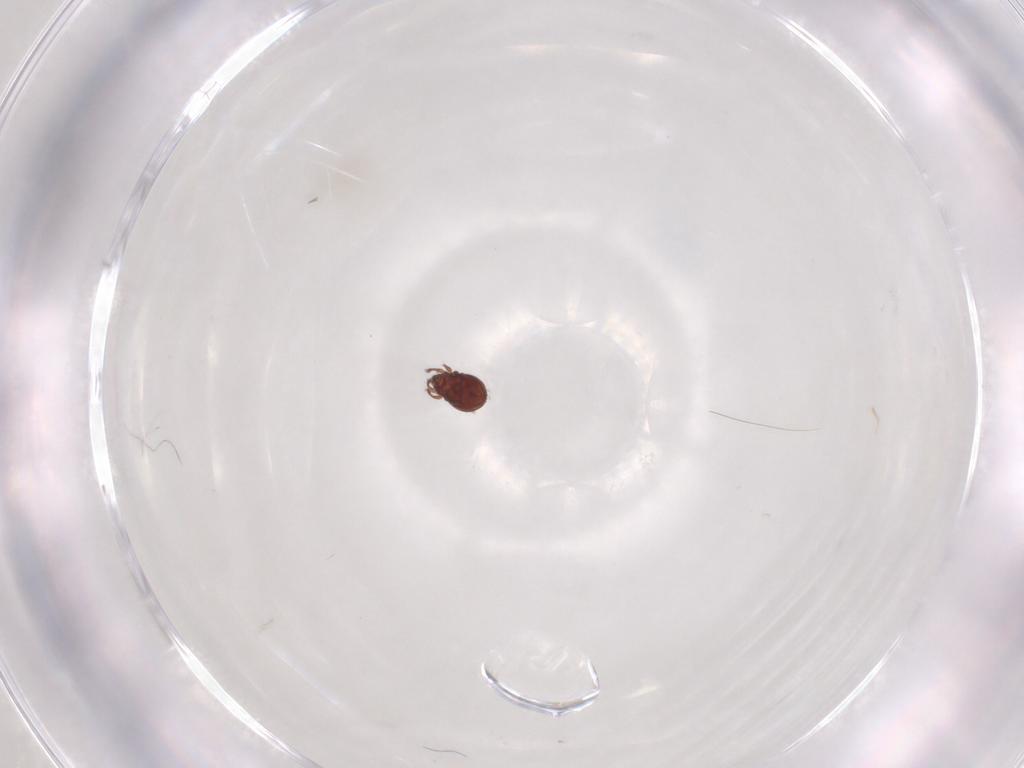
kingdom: Animalia
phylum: Arthropoda
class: Arachnida
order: Sarcoptiformes
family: Scheloribatidae
